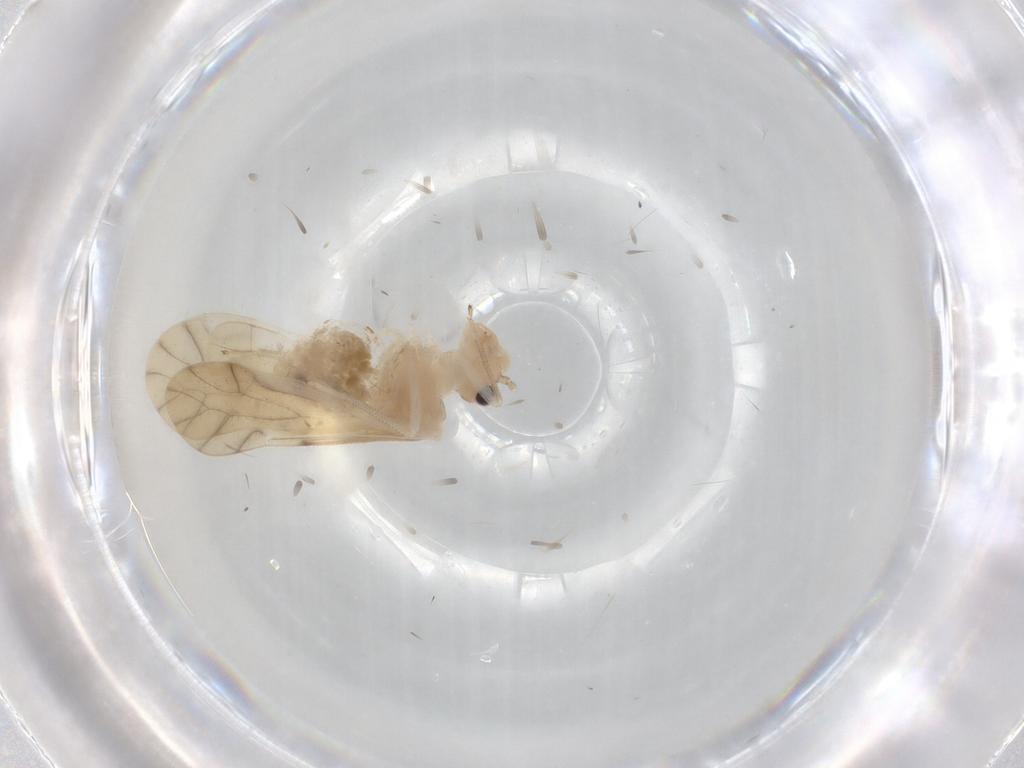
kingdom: Animalia
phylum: Arthropoda
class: Insecta
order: Psocodea
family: Caeciliusidae
